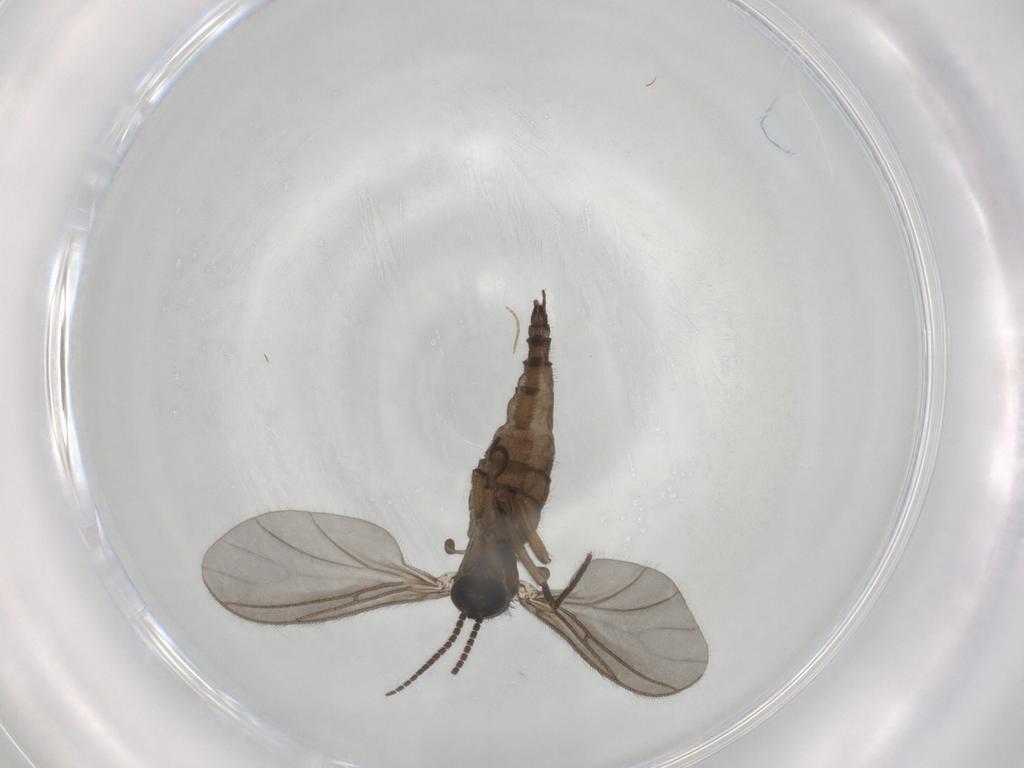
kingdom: Animalia
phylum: Arthropoda
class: Insecta
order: Diptera
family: Sciaridae
